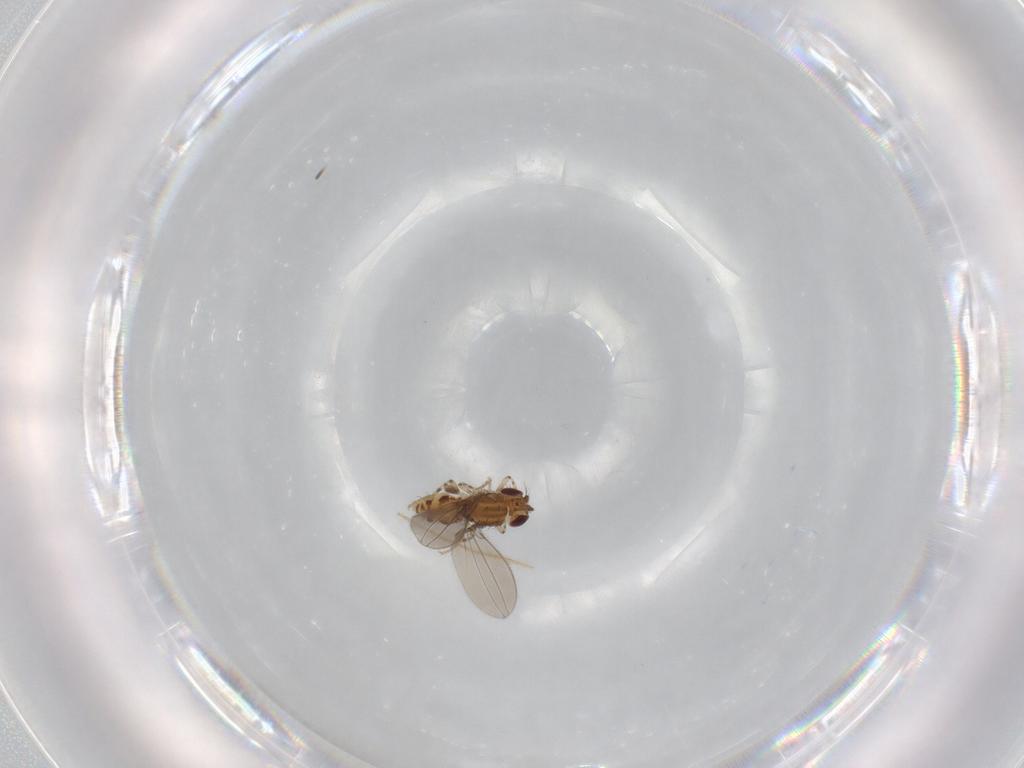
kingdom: Animalia
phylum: Arthropoda
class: Insecta
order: Diptera
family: Asteiidae
